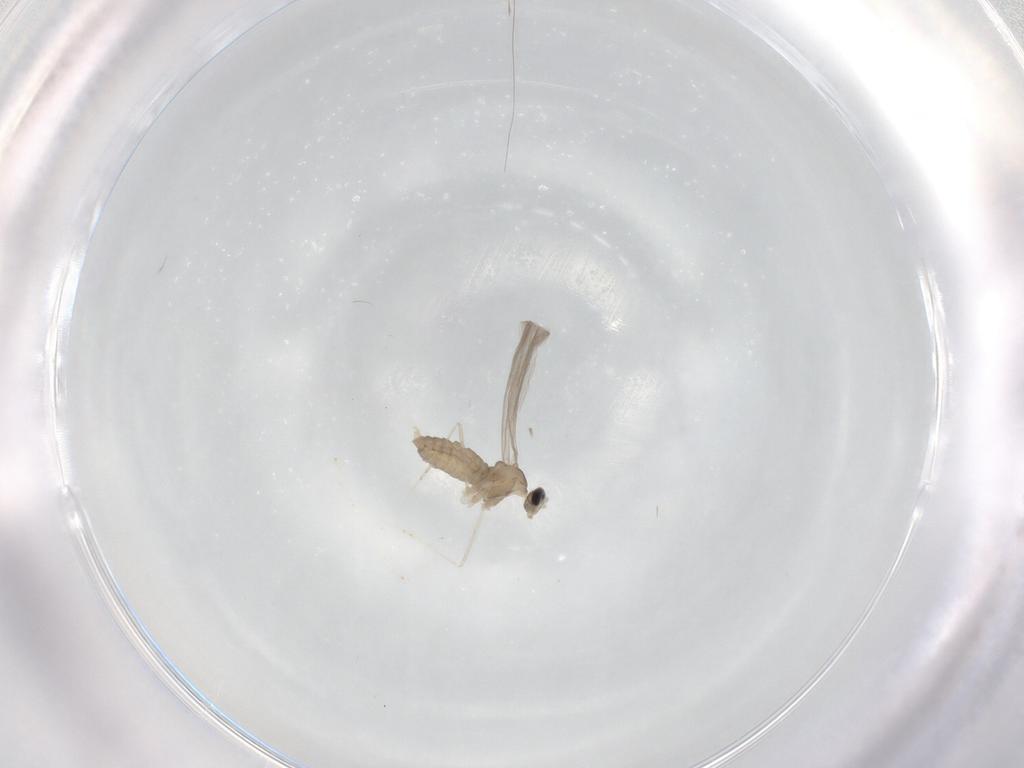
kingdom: Animalia
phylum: Arthropoda
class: Insecta
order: Diptera
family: Cecidomyiidae
